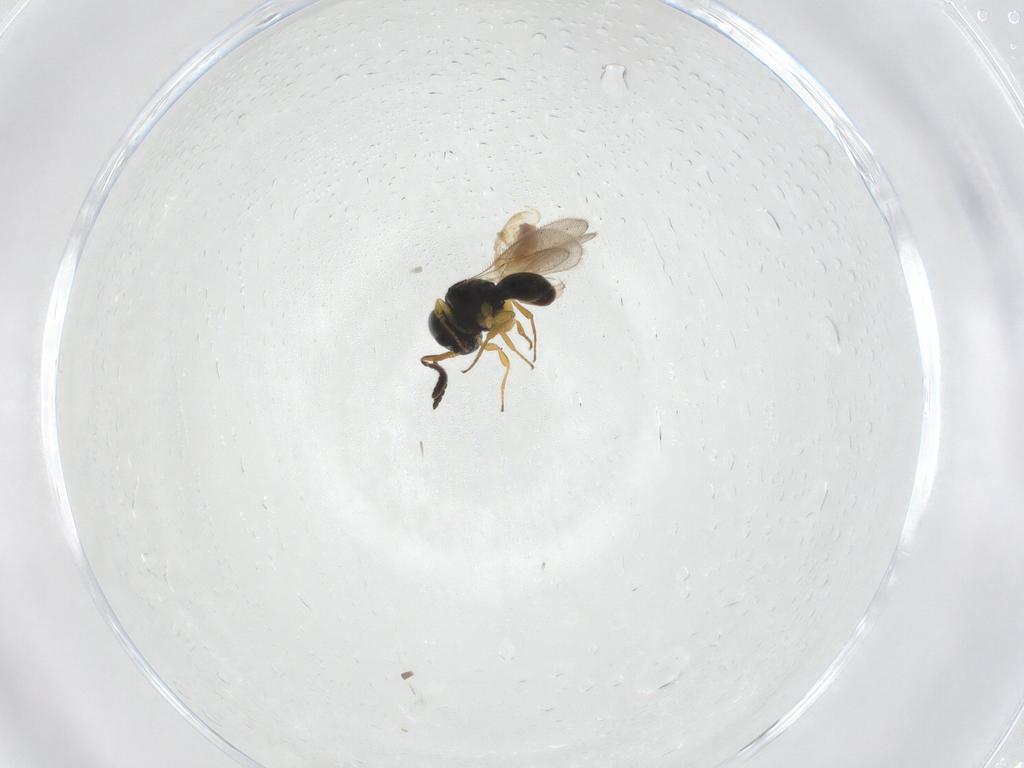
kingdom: Animalia
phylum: Arthropoda
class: Insecta
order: Hymenoptera
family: Scelionidae
